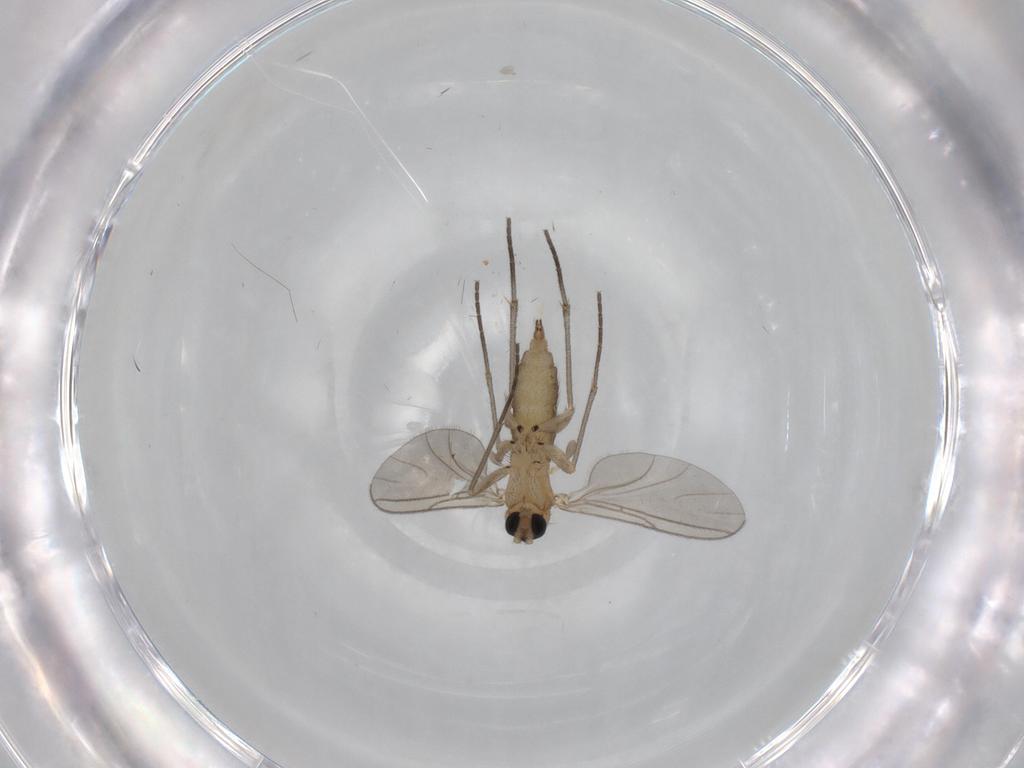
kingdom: Animalia
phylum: Arthropoda
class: Insecta
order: Diptera
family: Sciaridae
